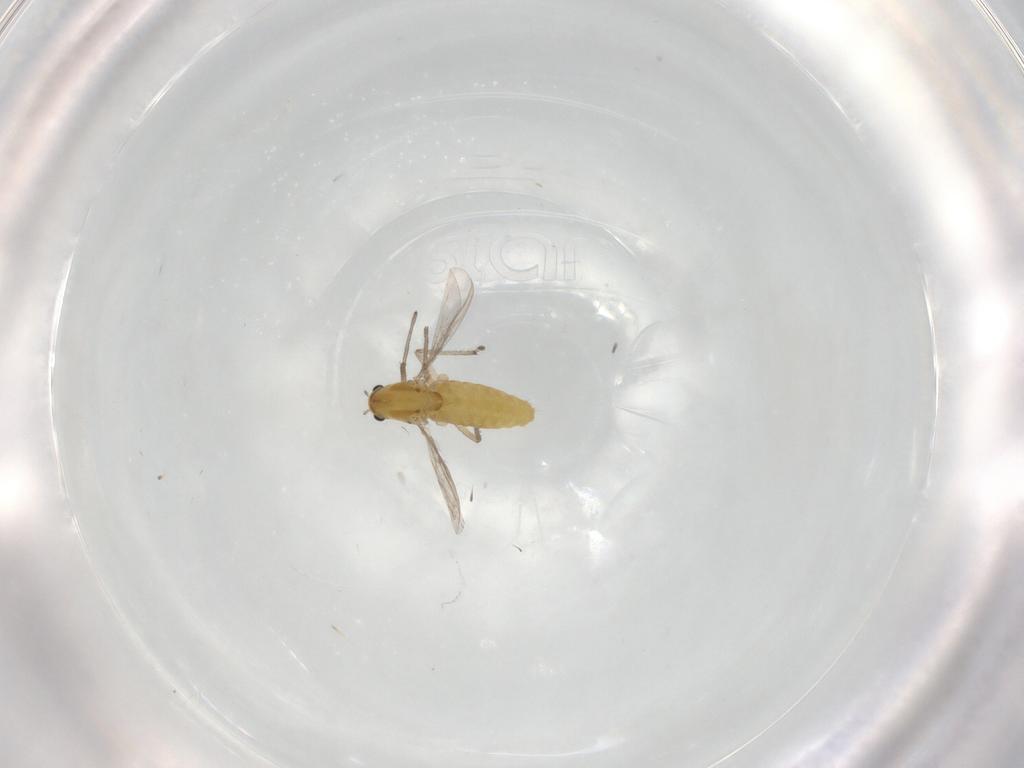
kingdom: Animalia
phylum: Arthropoda
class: Insecta
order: Diptera
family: Chironomidae
